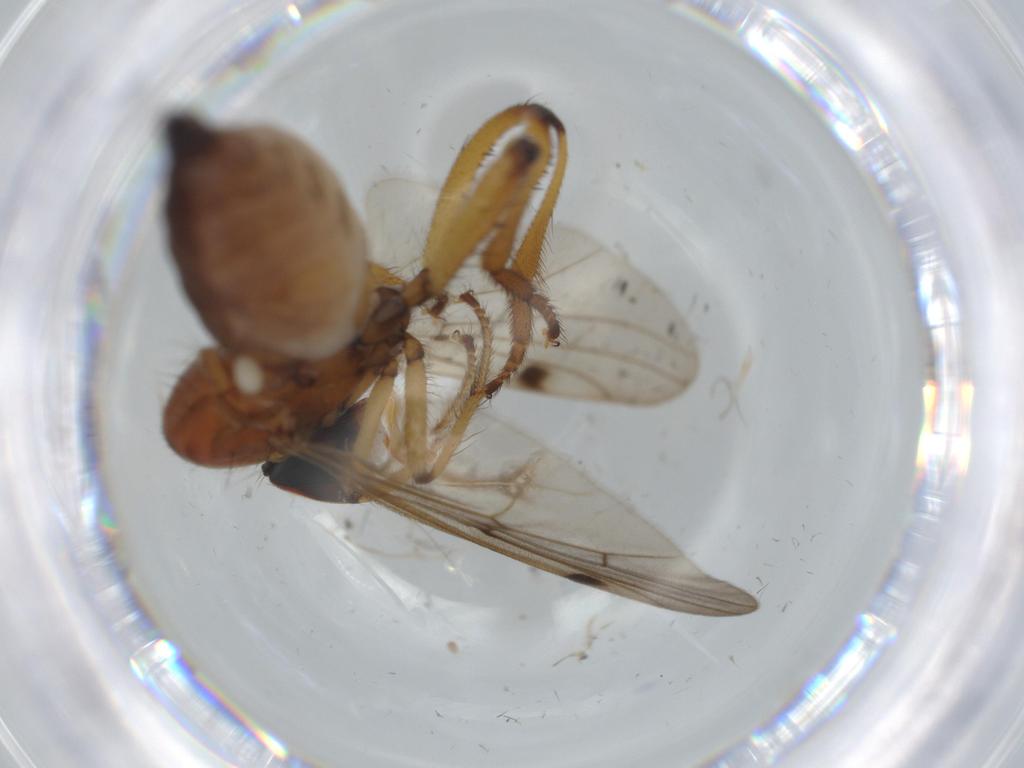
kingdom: Animalia
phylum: Arthropoda
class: Insecta
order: Diptera
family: Hybotidae
